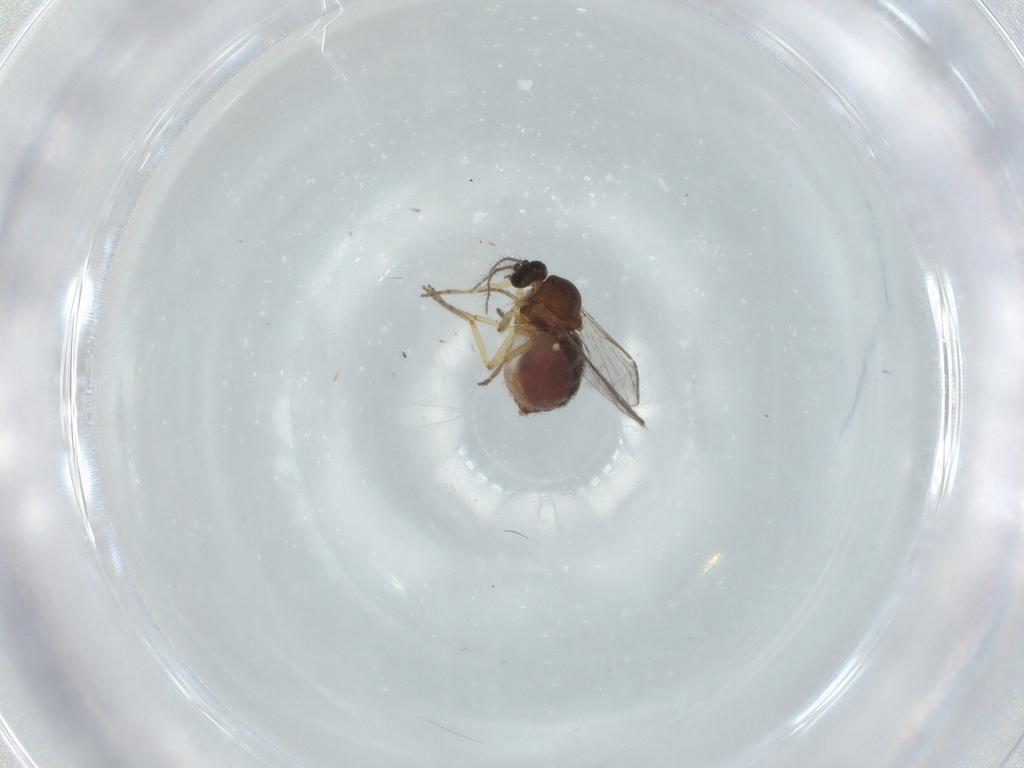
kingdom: Animalia
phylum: Arthropoda
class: Insecta
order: Diptera
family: Ceratopogonidae
